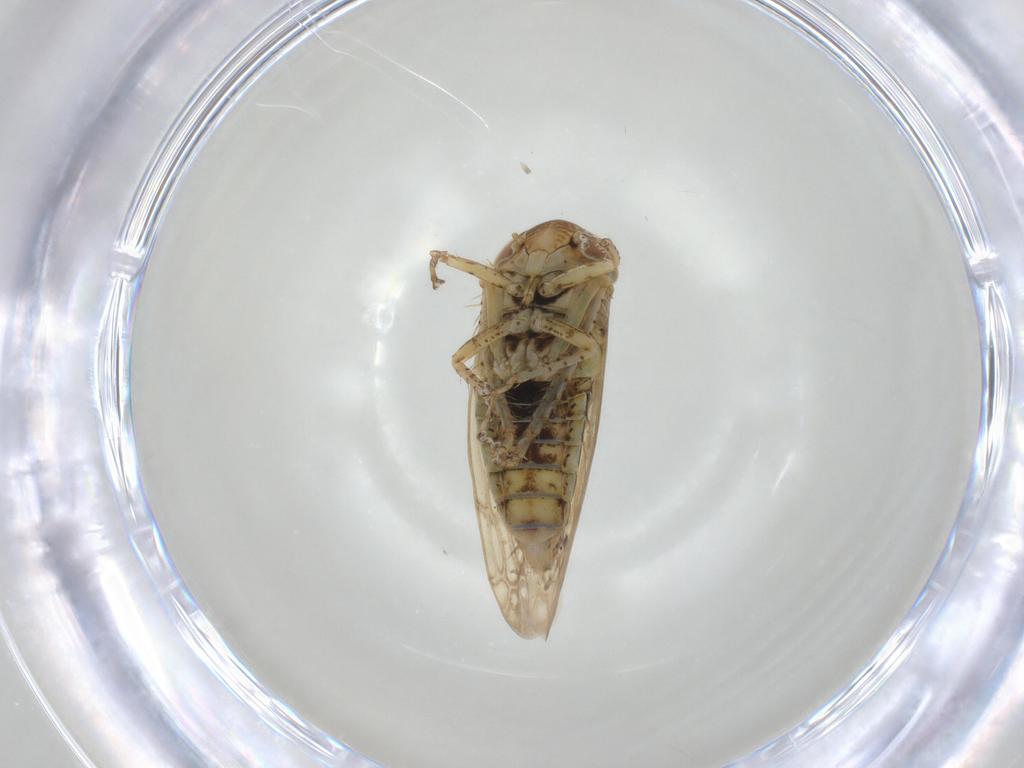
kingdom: Animalia
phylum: Arthropoda
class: Insecta
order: Hemiptera
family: Cicadellidae
